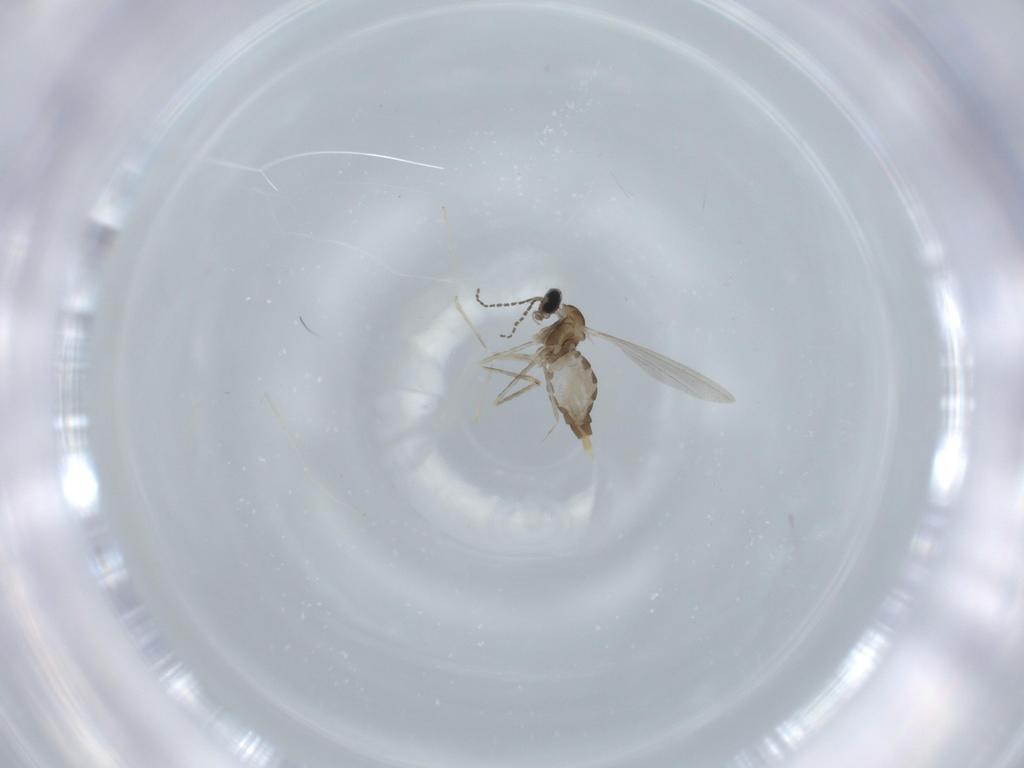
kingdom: Animalia
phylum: Arthropoda
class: Insecta
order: Diptera
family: Cecidomyiidae
